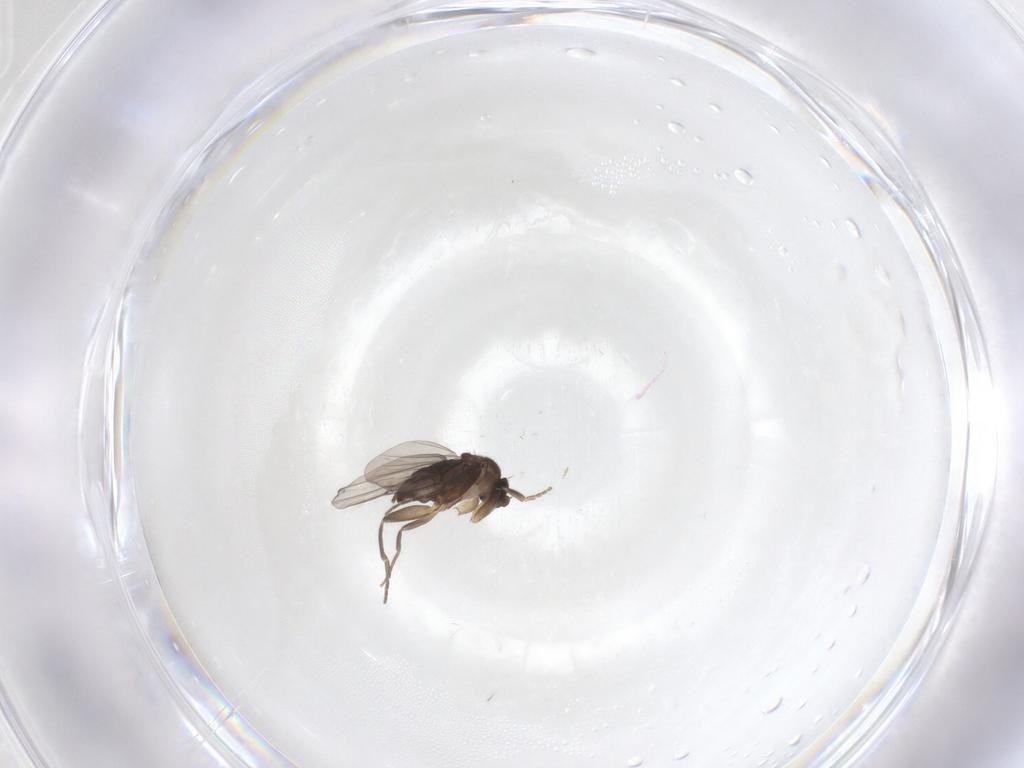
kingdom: Animalia
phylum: Arthropoda
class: Insecta
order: Diptera
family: Phoridae
